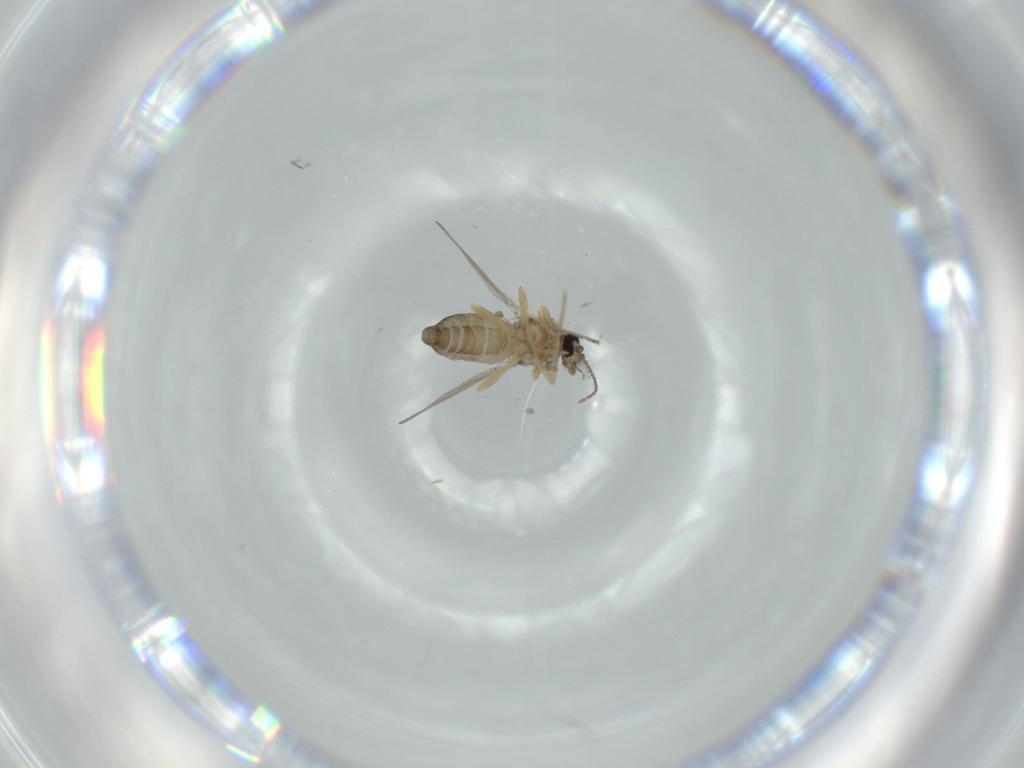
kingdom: Animalia
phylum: Arthropoda
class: Insecta
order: Diptera
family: Ceratopogonidae
